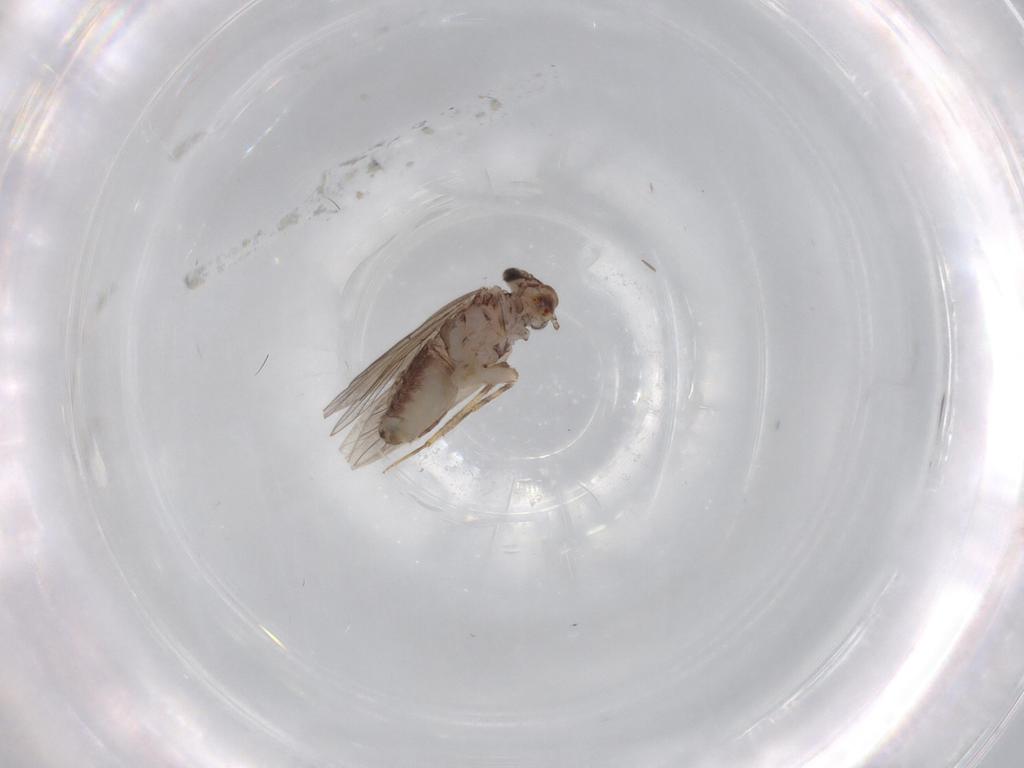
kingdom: Animalia
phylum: Arthropoda
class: Insecta
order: Psocodea
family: Lepidopsocidae
